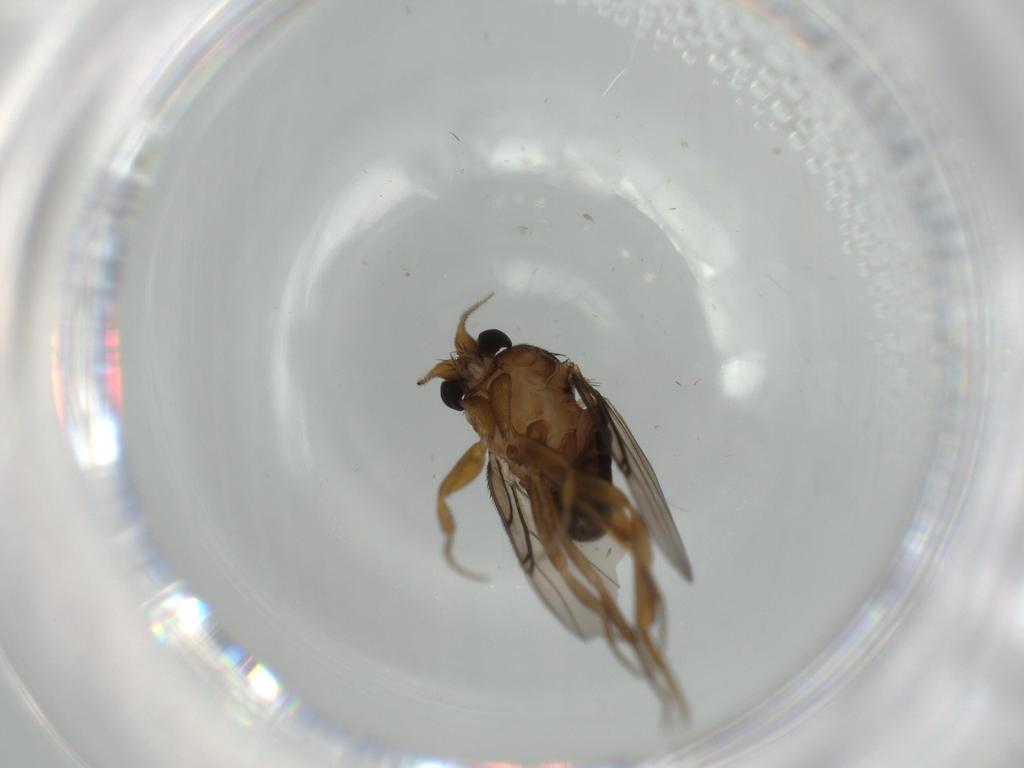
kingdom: Animalia
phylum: Arthropoda
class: Insecta
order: Diptera
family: Phoridae
